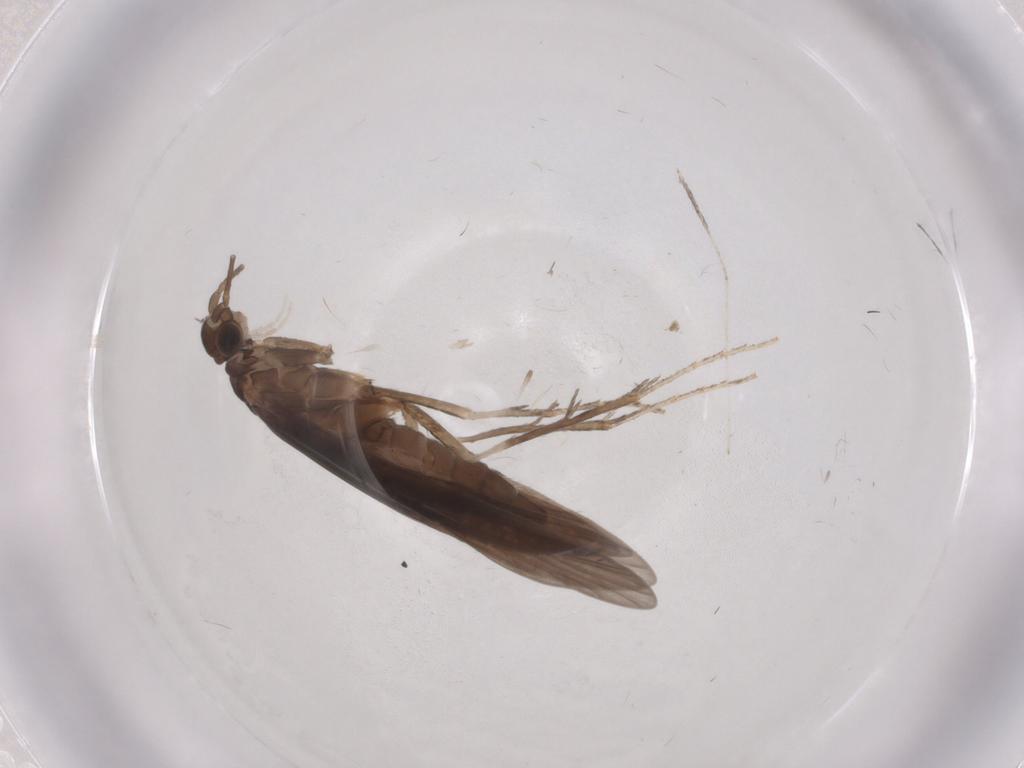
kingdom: Animalia
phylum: Arthropoda
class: Insecta
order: Trichoptera
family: Xiphocentronidae
